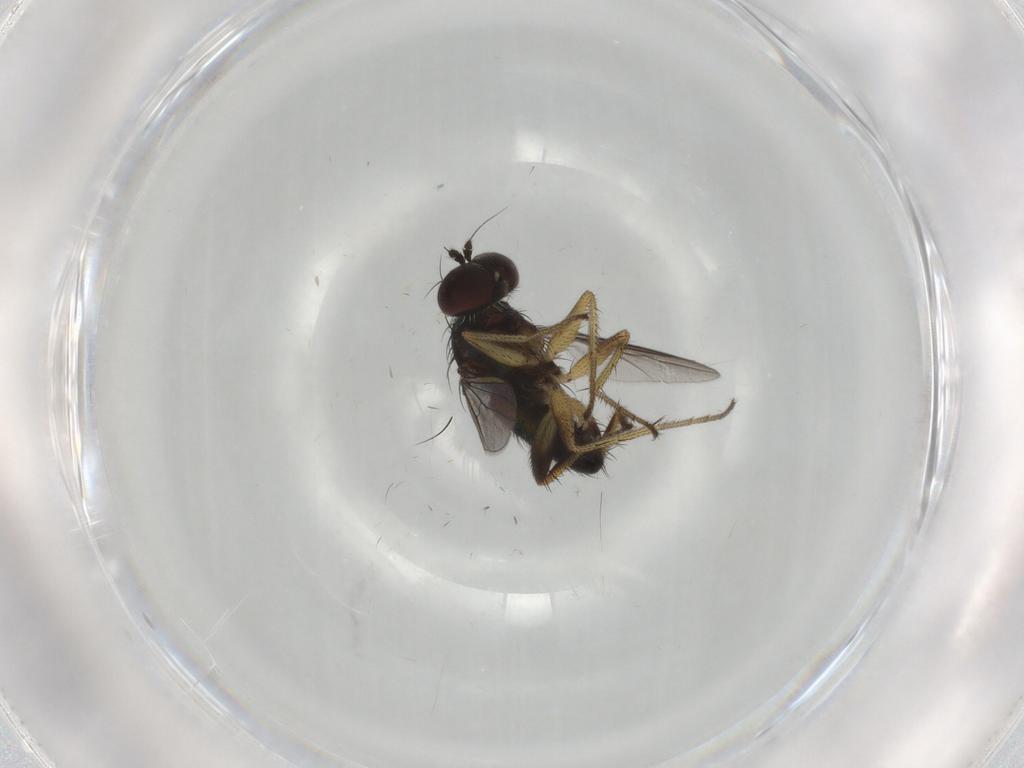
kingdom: Animalia
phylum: Arthropoda
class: Insecta
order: Diptera
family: Dolichopodidae
